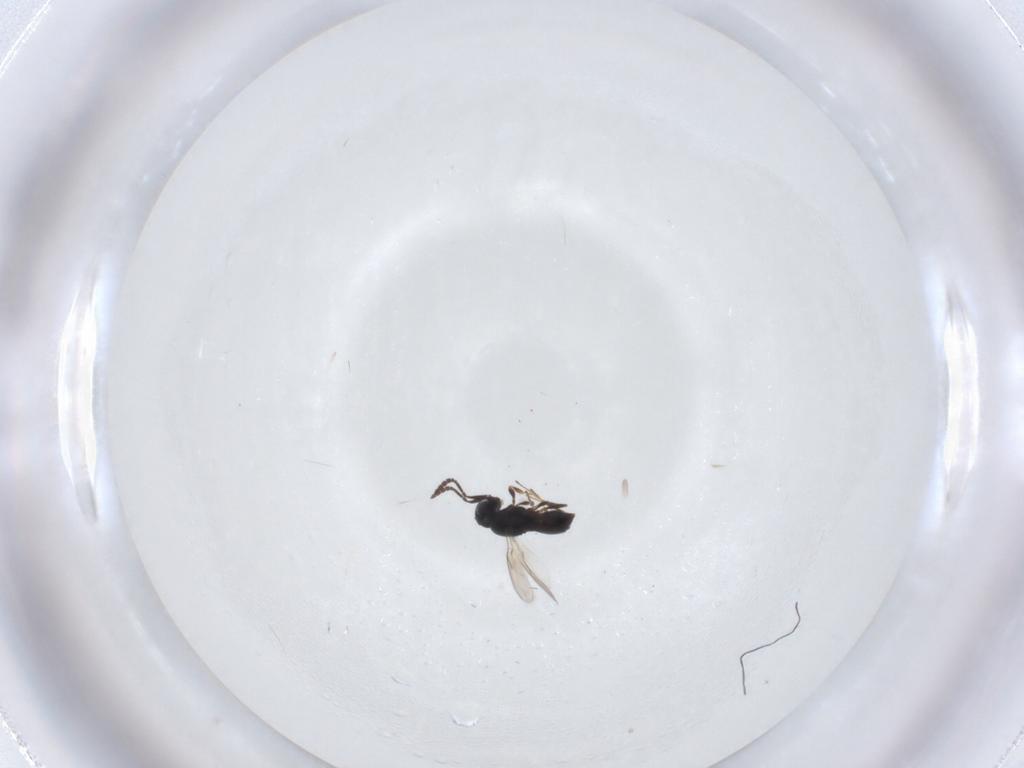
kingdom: Animalia
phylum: Arthropoda
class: Insecta
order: Hymenoptera
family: Scelionidae
